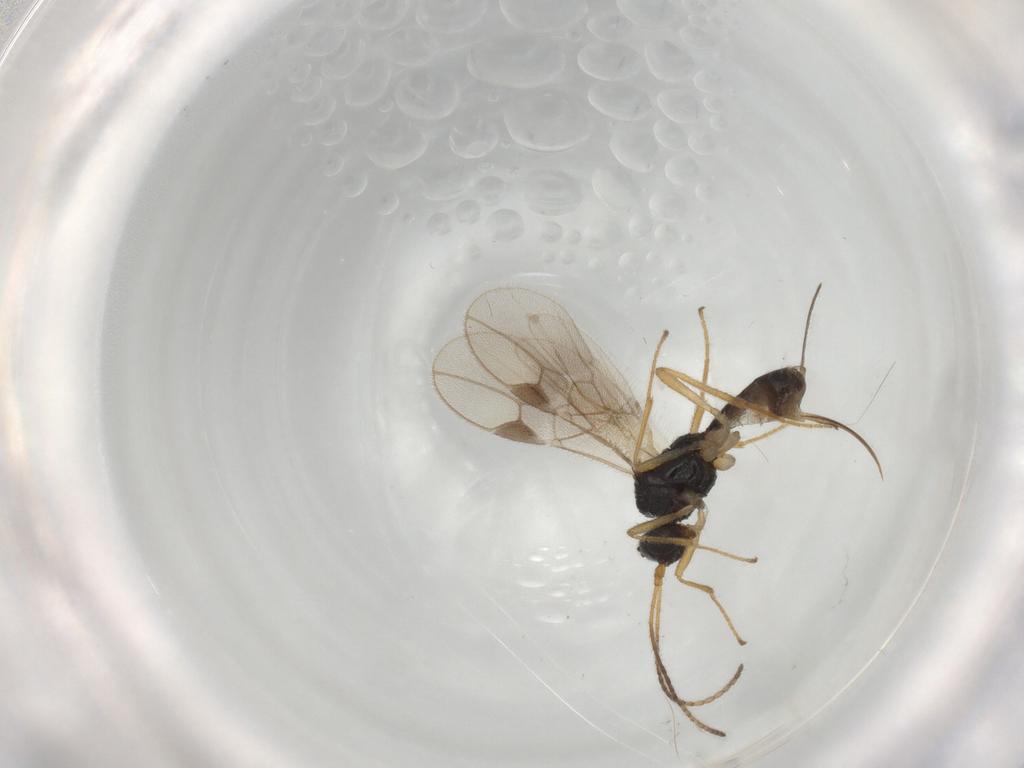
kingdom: Animalia
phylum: Arthropoda
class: Insecta
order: Hymenoptera
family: Braconidae
